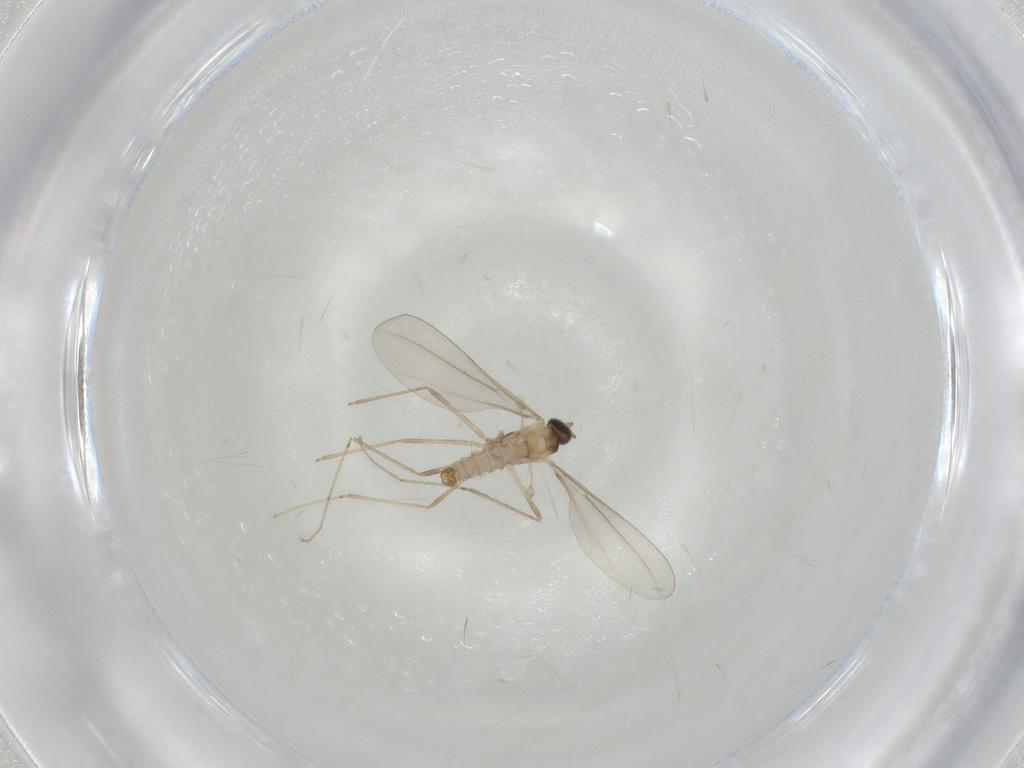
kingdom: Animalia
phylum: Arthropoda
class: Insecta
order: Diptera
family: Cecidomyiidae
